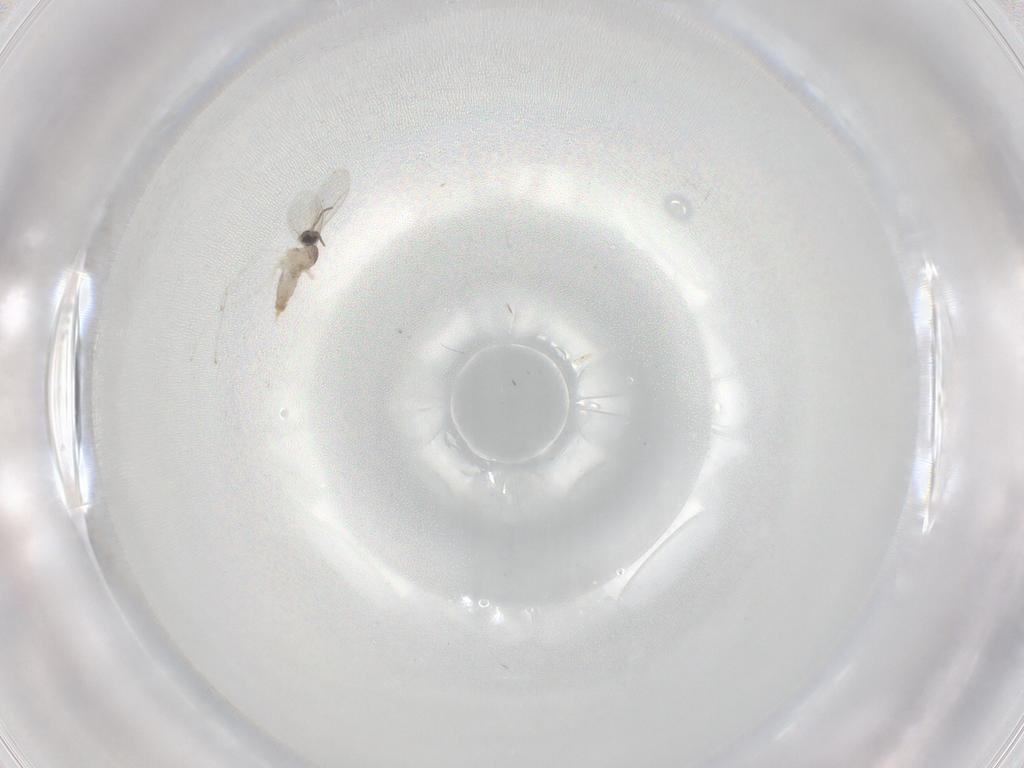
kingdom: Animalia
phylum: Arthropoda
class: Insecta
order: Diptera
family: Cecidomyiidae
